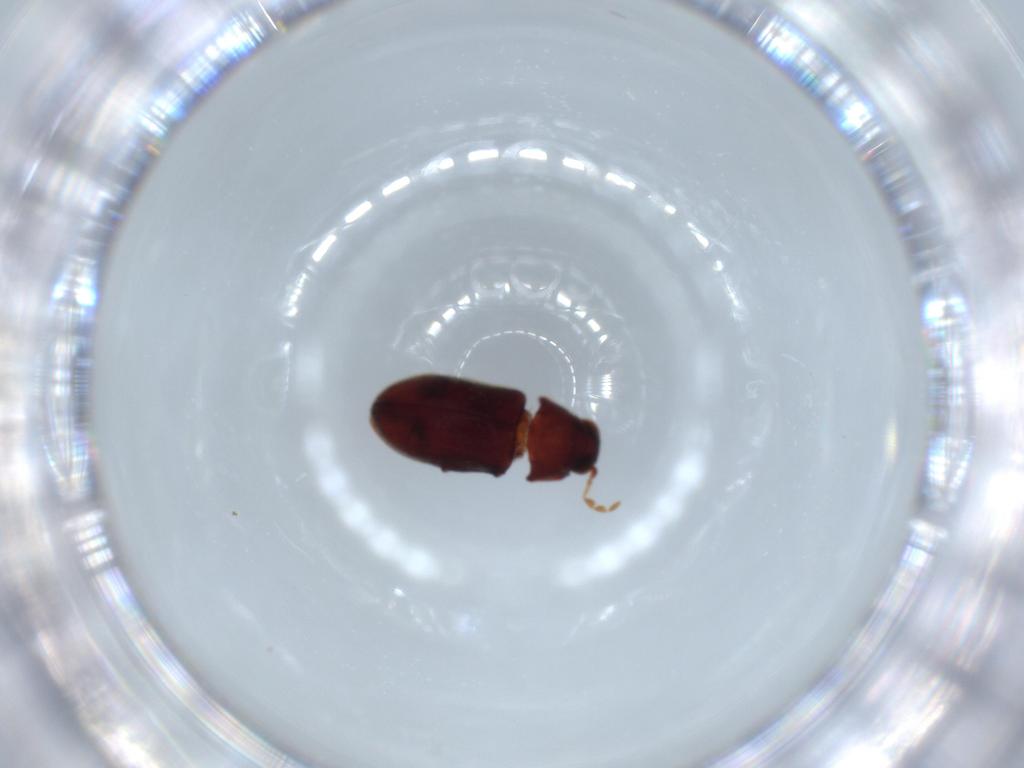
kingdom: Animalia
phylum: Arthropoda
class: Insecta
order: Coleoptera
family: Ptinidae
